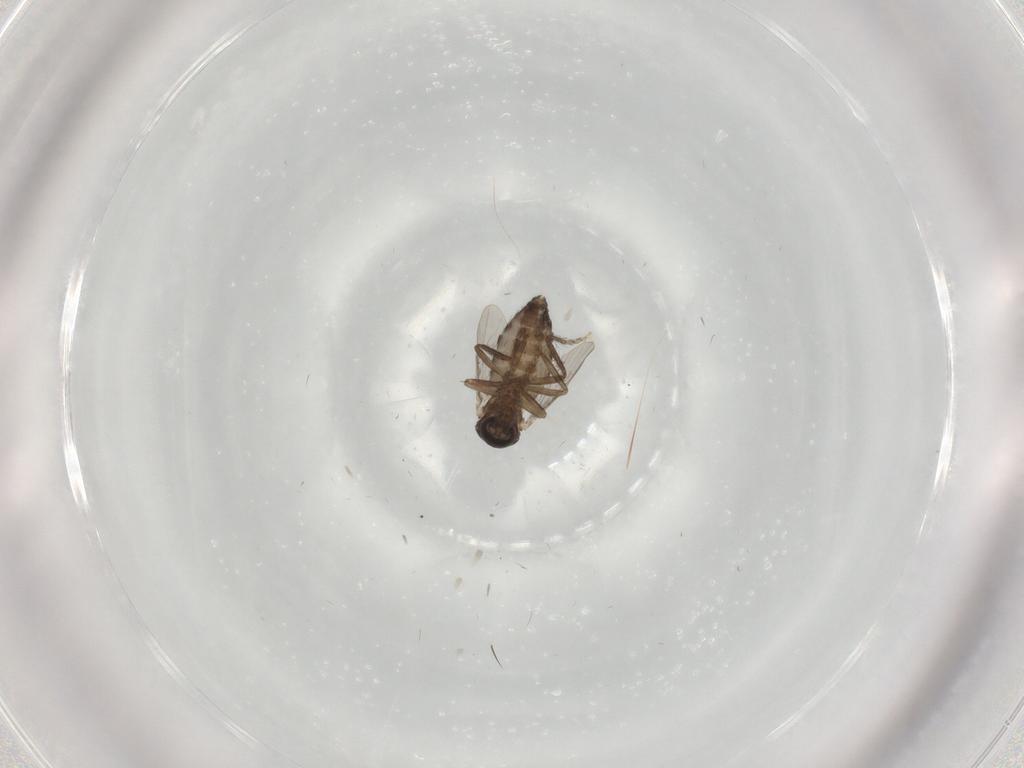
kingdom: Animalia
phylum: Arthropoda
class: Insecta
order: Diptera
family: Ceratopogonidae
